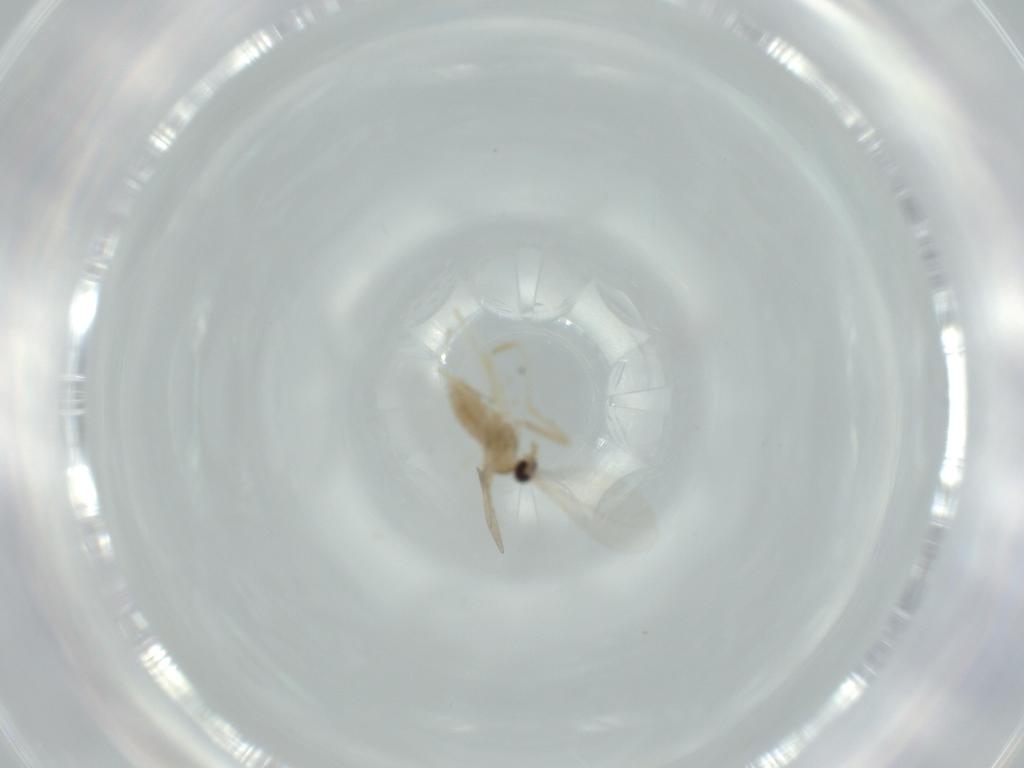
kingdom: Animalia
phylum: Arthropoda
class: Insecta
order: Diptera
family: Cecidomyiidae
